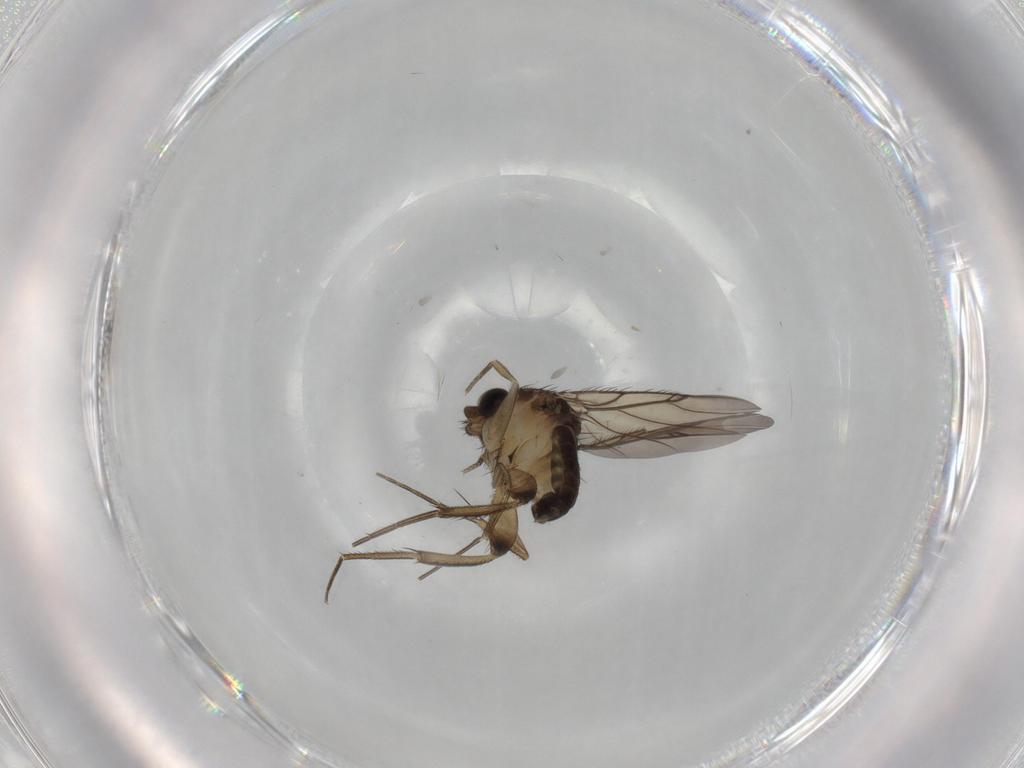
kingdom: Animalia
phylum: Arthropoda
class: Insecta
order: Diptera
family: Phoridae
